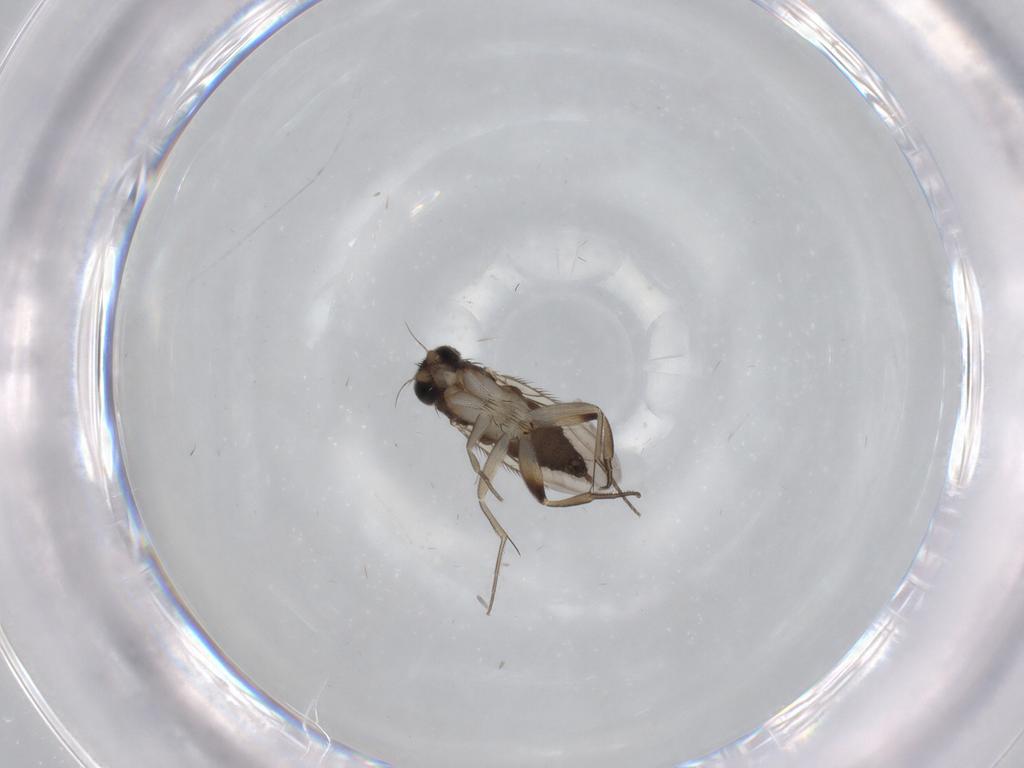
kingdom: Animalia
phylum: Arthropoda
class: Insecta
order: Diptera
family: Phoridae
